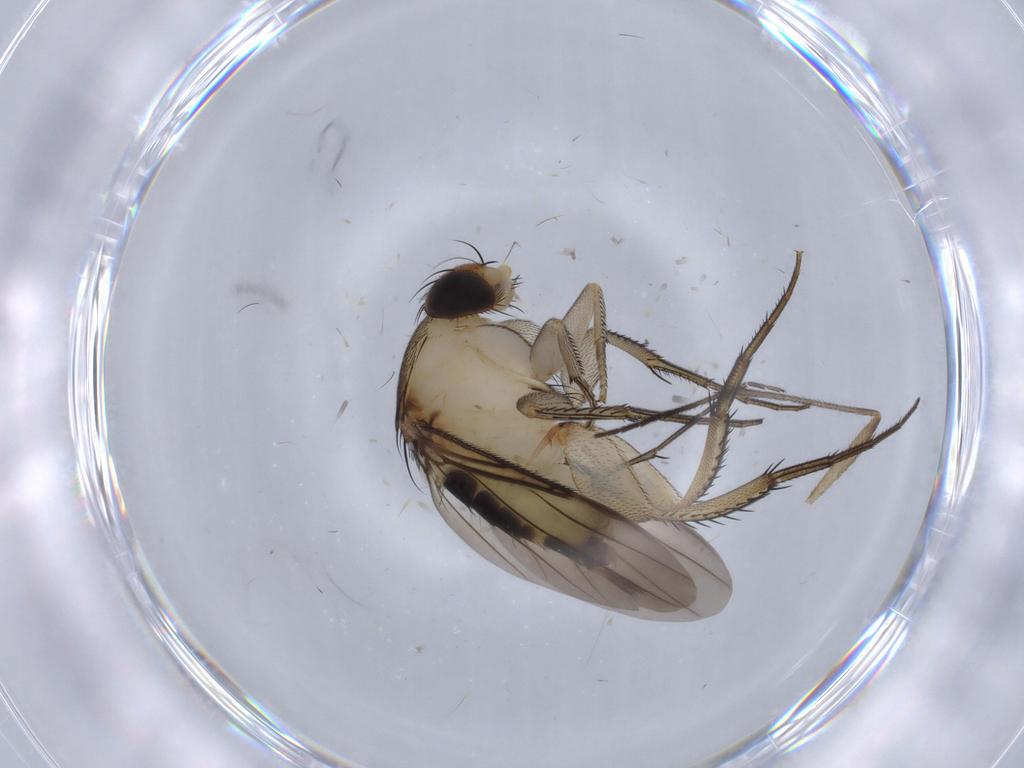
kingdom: Animalia
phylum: Arthropoda
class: Insecta
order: Diptera
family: Phoridae
